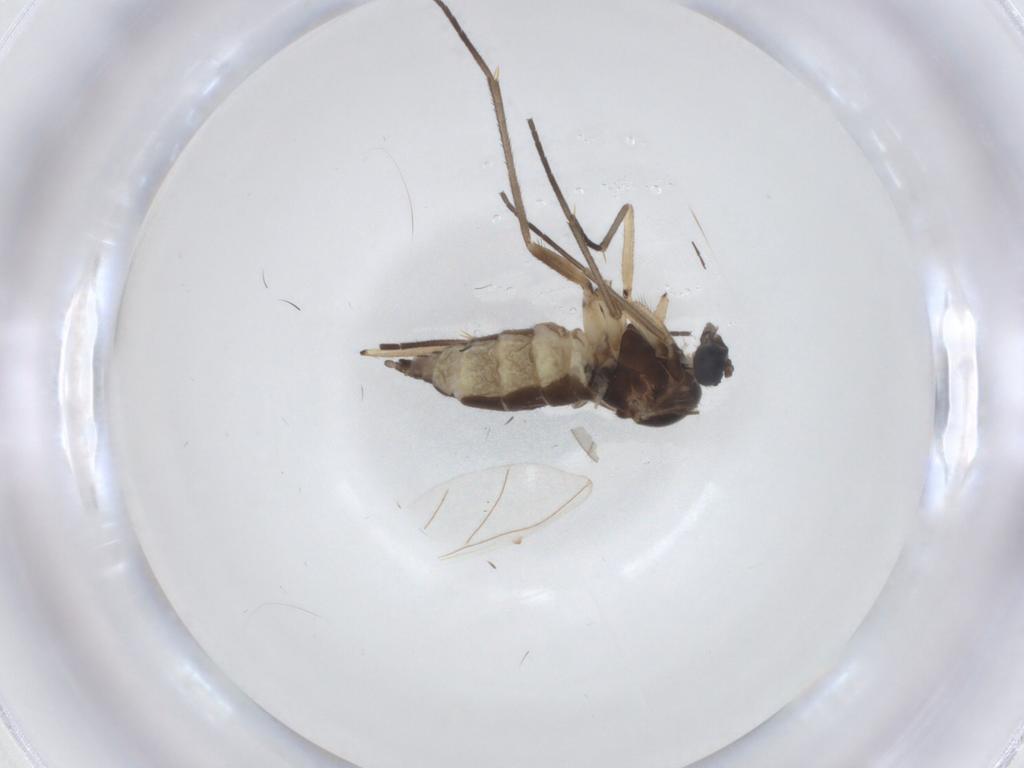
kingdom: Animalia
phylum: Arthropoda
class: Insecta
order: Diptera
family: Sciaridae
